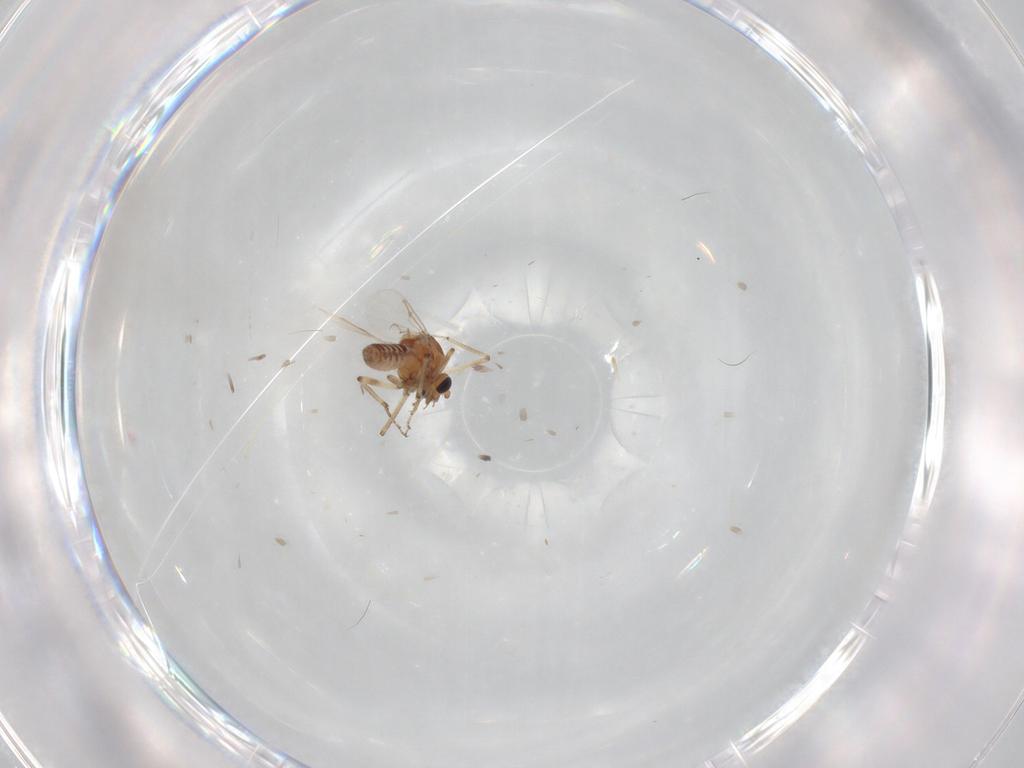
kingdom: Animalia
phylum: Arthropoda
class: Insecta
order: Diptera
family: Ceratopogonidae
